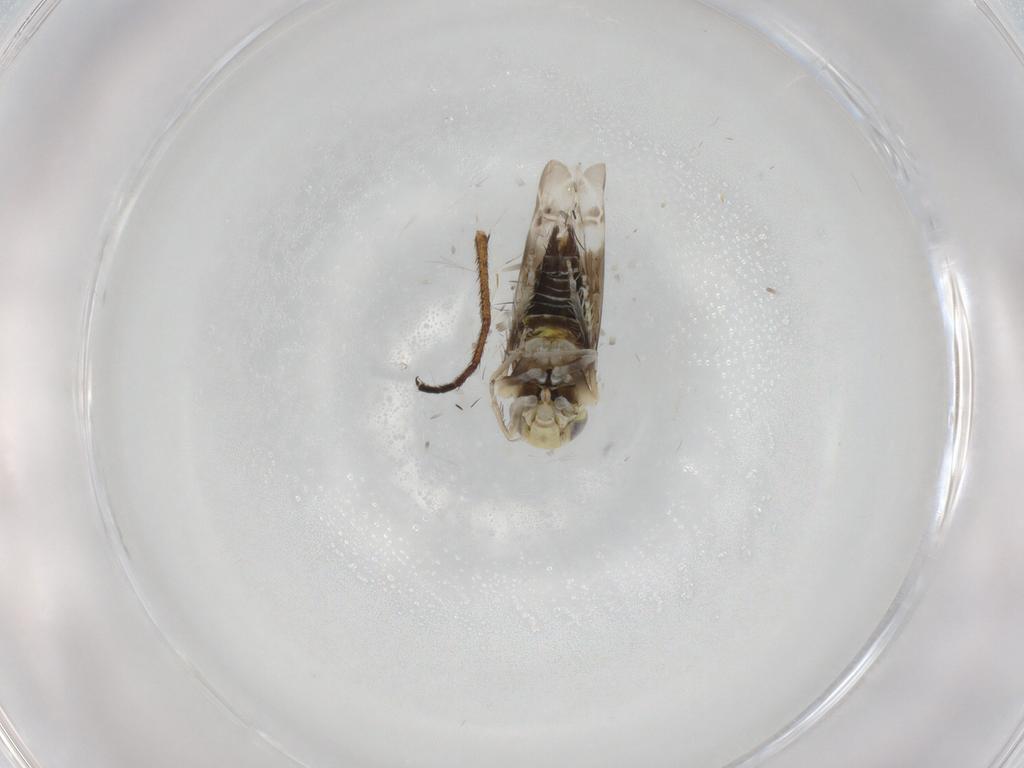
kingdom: Animalia
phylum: Arthropoda
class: Insecta
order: Hemiptera
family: Cicadellidae
